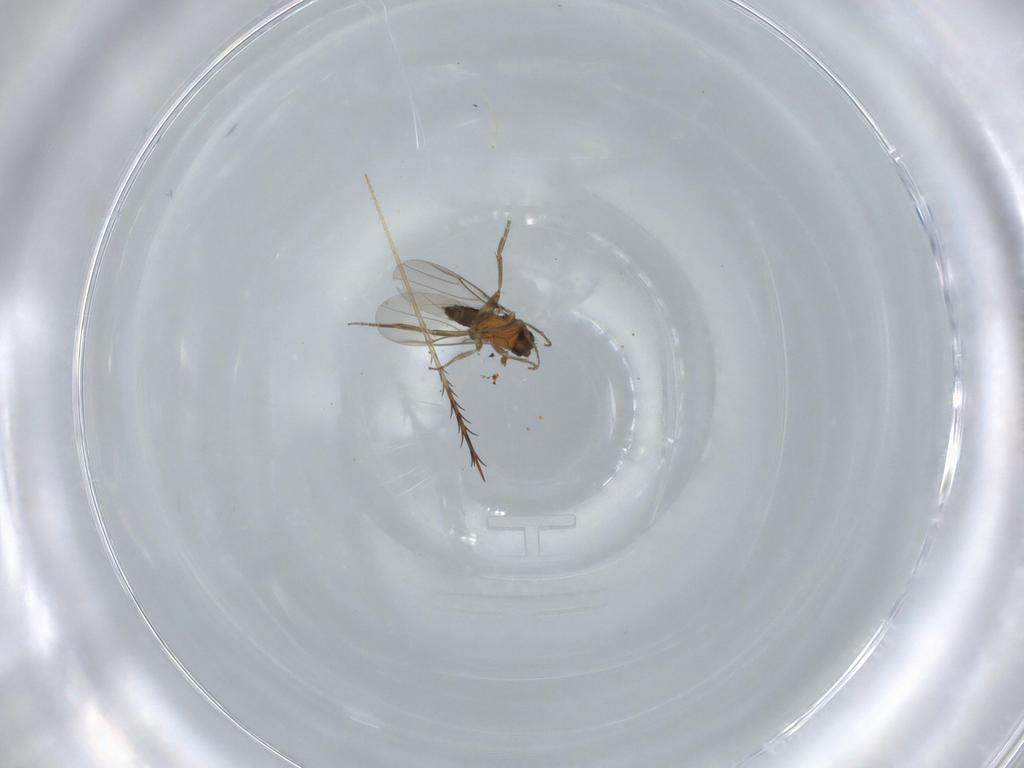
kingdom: Animalia
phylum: Arthropoda
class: Insecta
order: Diptera
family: Phoridae
